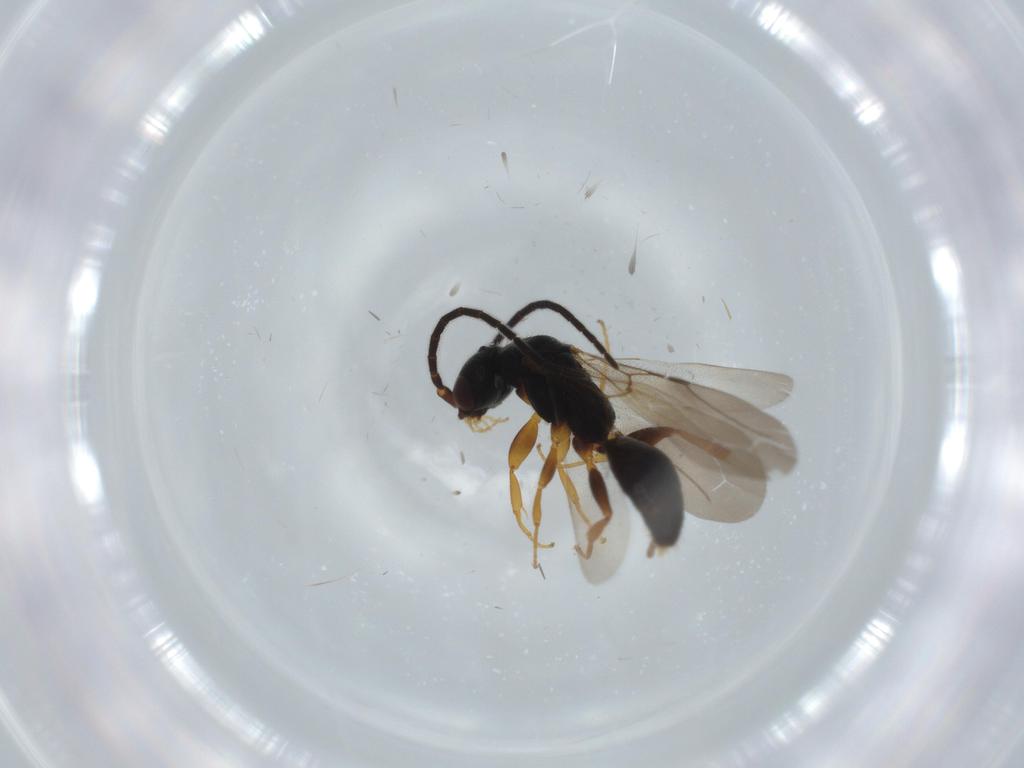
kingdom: Animalia
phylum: Arthropoda
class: Insecta
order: Hymenoptera
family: Bethylidae
